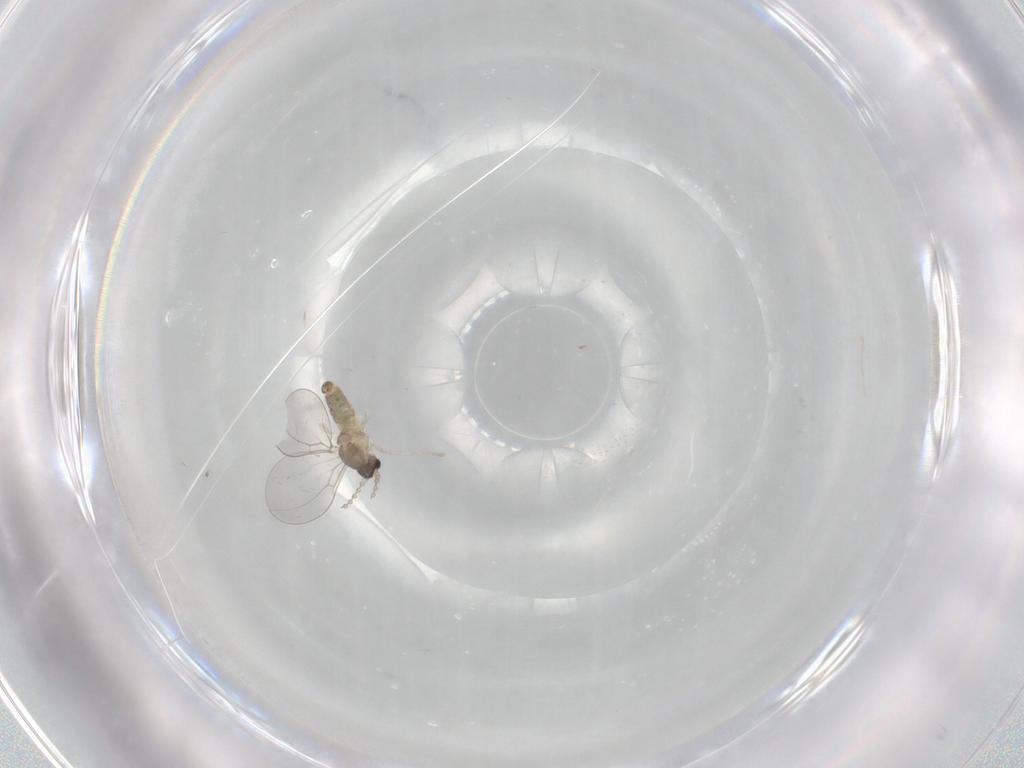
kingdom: Animalia
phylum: Arthropoda
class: Insecta
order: Diptera
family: Cecidomyiidae
